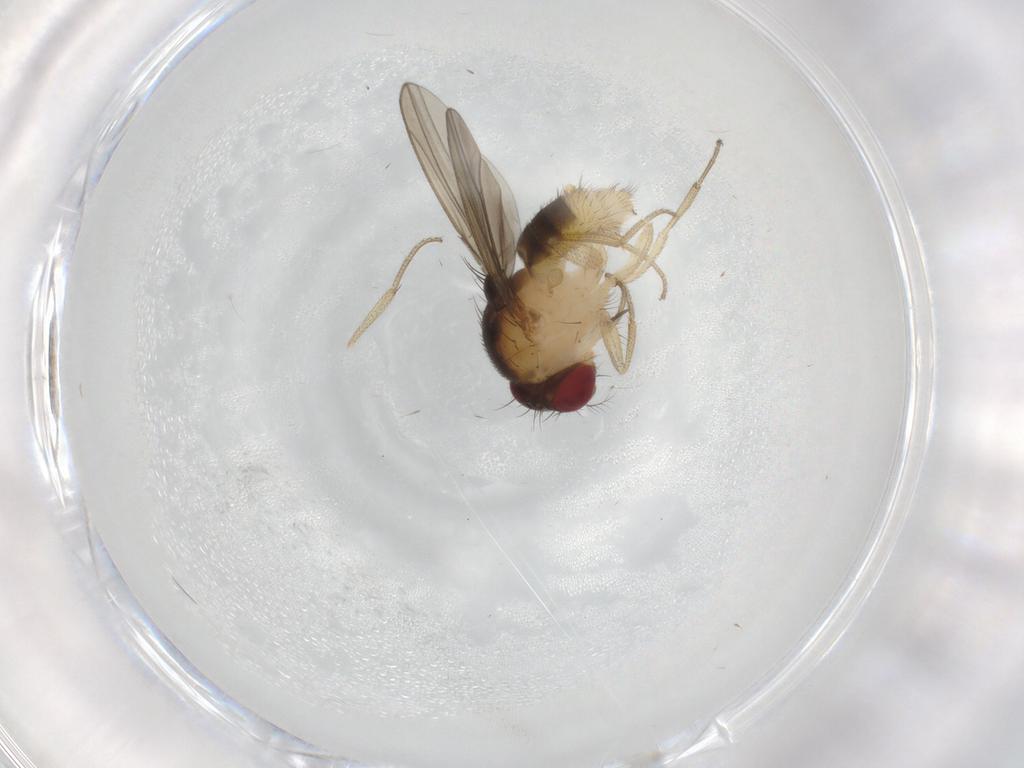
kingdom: Animalia
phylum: Arthropoda
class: Insecta
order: Diptera
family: Drosophilidae
